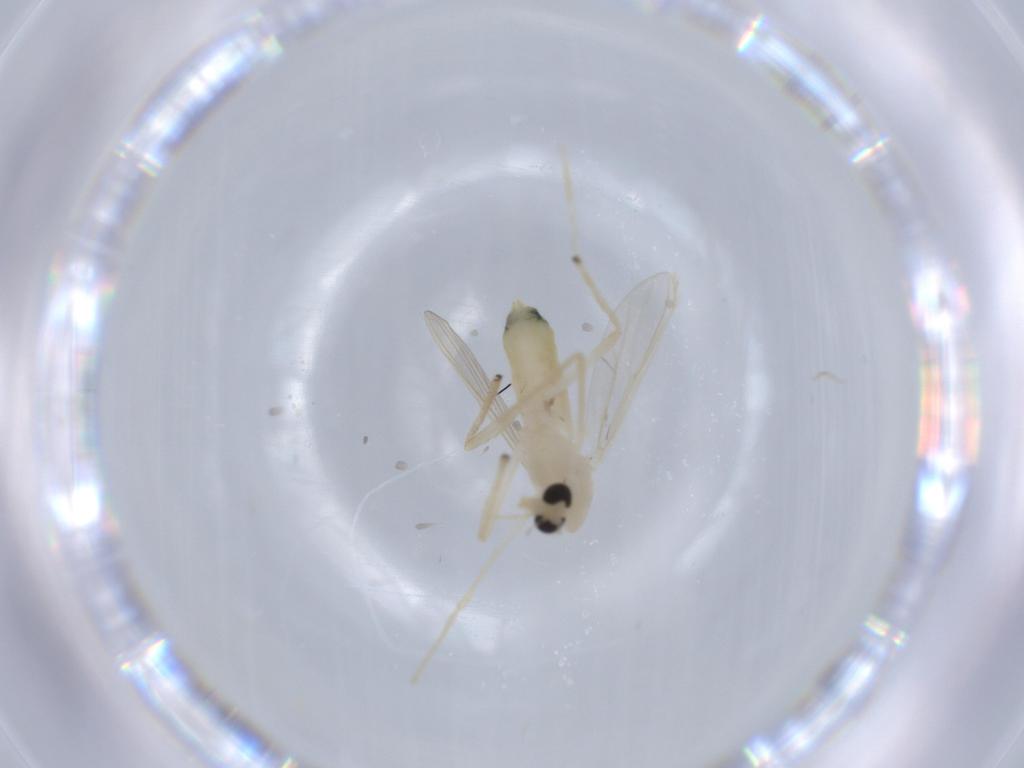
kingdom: Animalia
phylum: Arthropoda
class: Insecta
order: Diptera
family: Chironomidae
